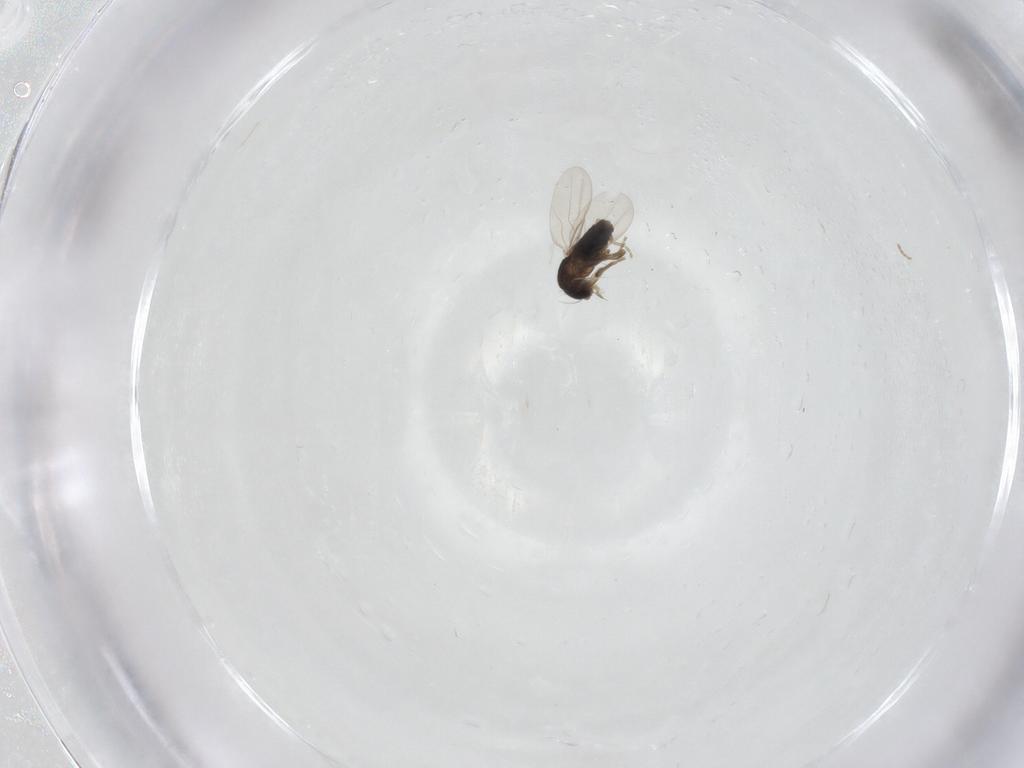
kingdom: Animalia
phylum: Arthropoda
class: Insecta
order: Diptera
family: Phoridae
